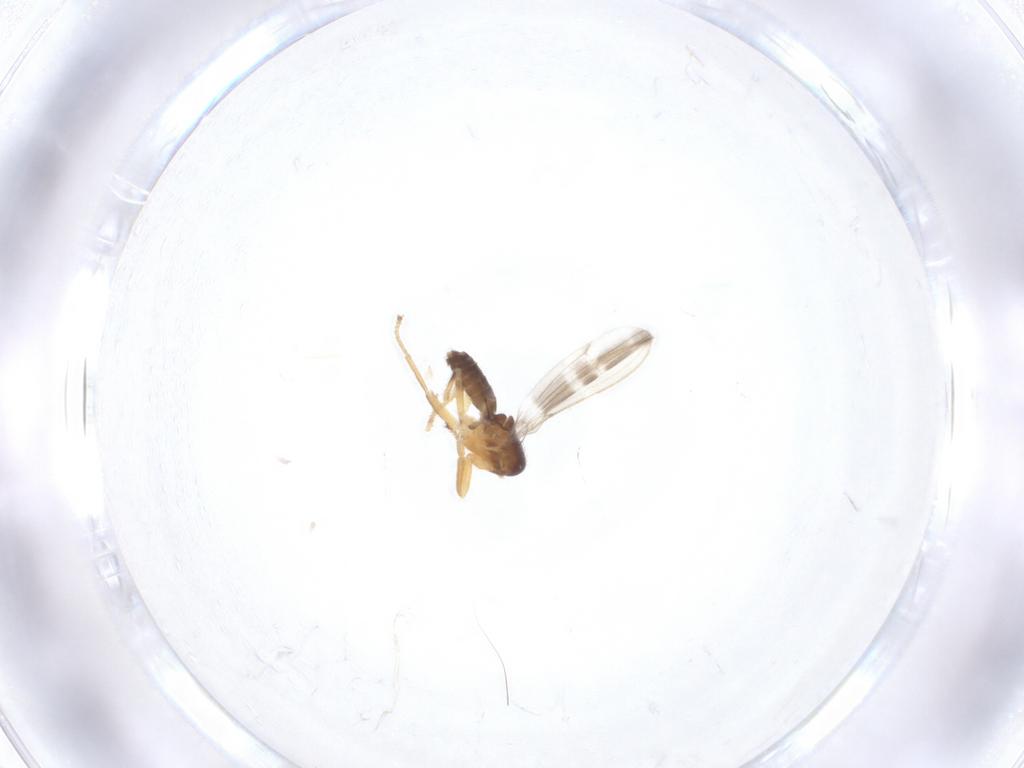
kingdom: Animalia
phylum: Arthropoda
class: Insecta
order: Diptera
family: Periscelididae
